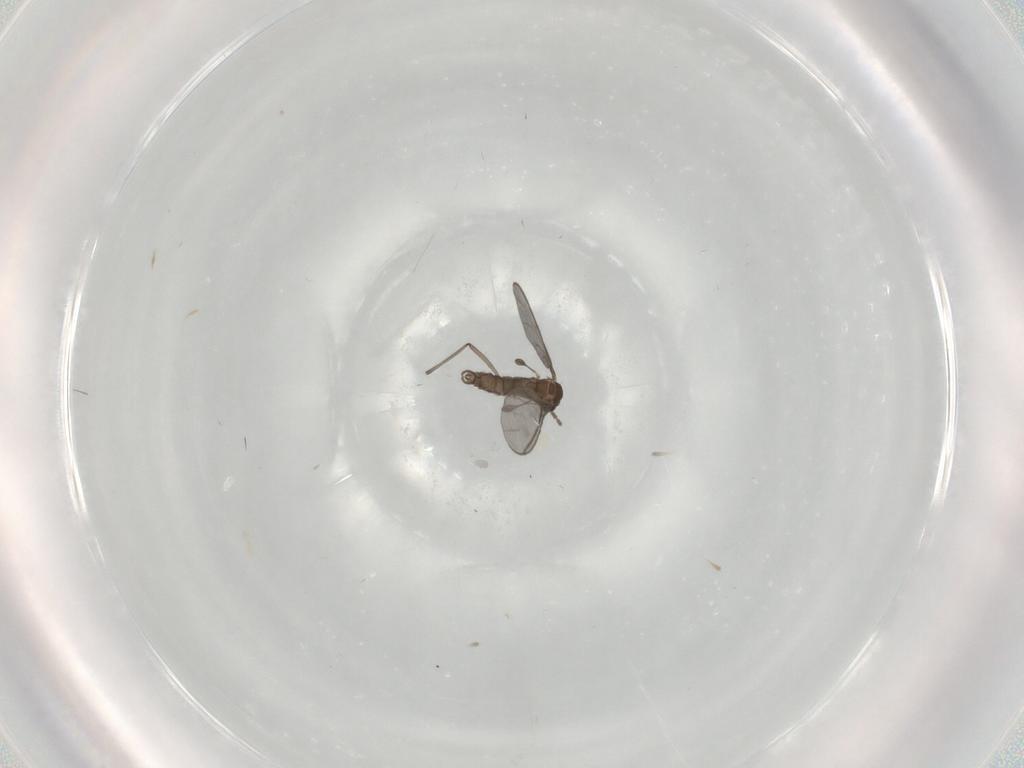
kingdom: Animalia
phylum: Arthropoda
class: Insecta
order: Diptera
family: Sciaridae
